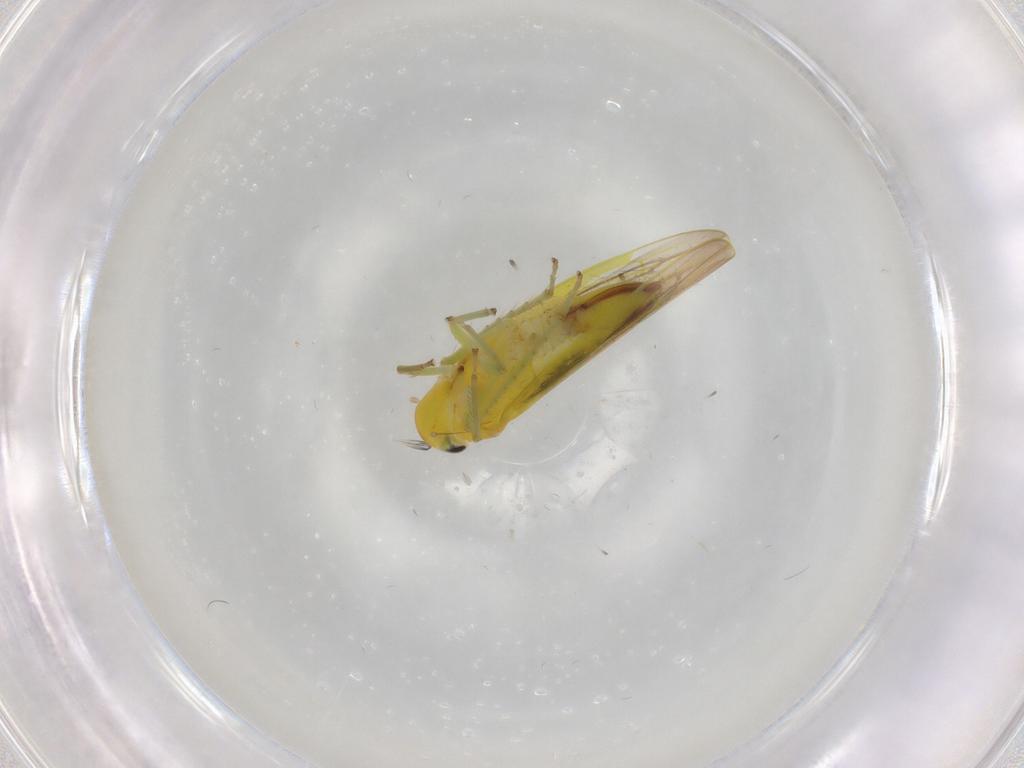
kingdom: Animalia
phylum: Arthropoda
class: Insecta
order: Hemiptera
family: Cicadellidae
